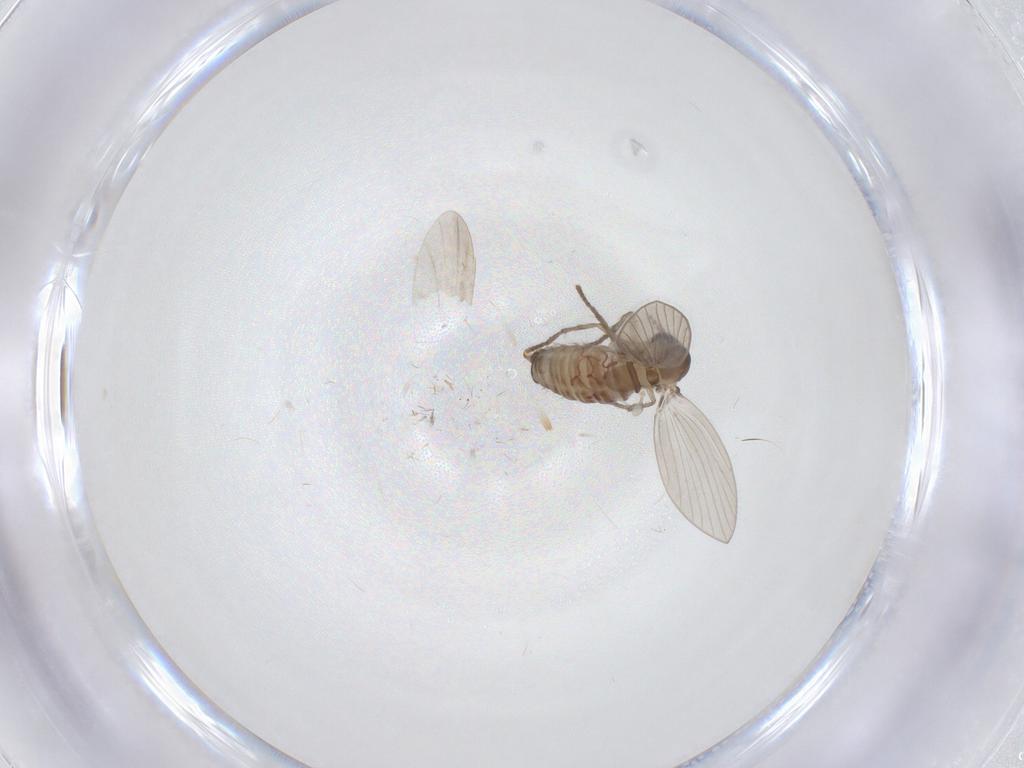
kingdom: Animalia
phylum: Arthropoda
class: Insecta
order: Diptera
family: Psychodidae
